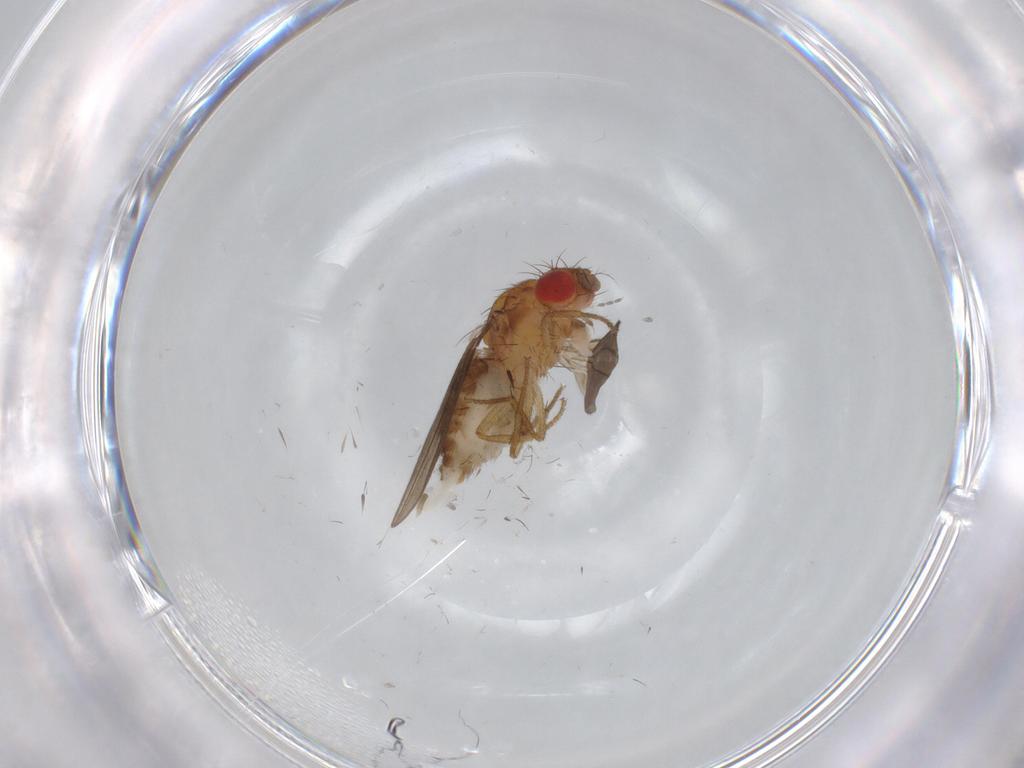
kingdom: Animalia
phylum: Arthropoda
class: Insecta
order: Diptera
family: Drosophilidae
